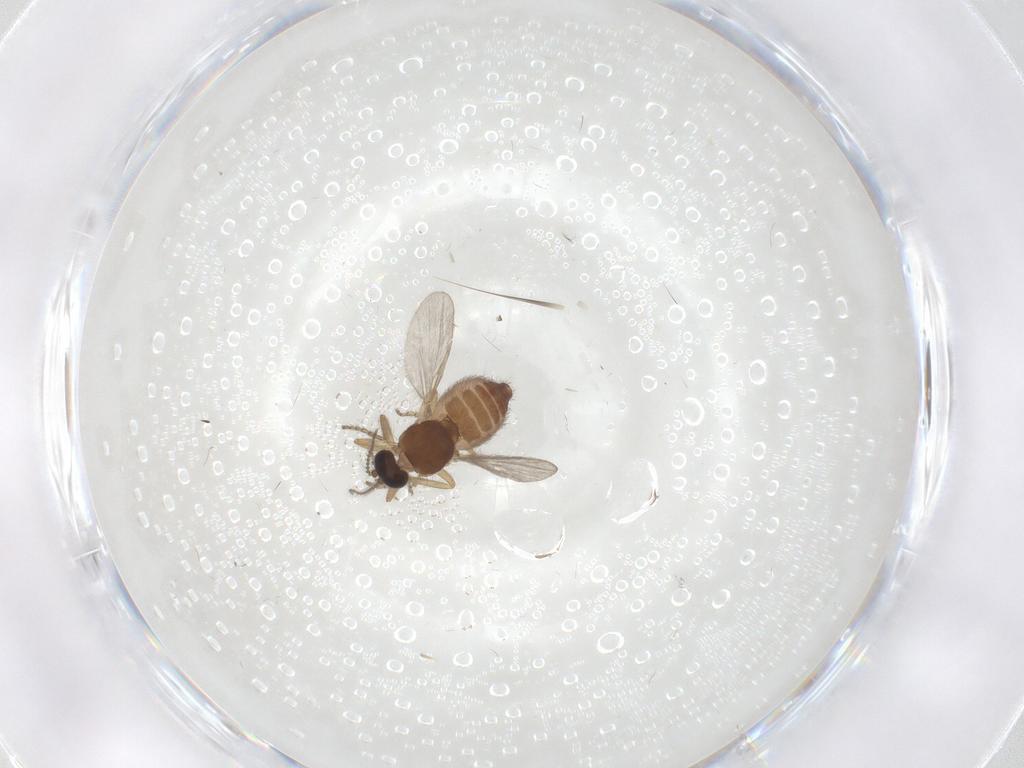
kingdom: Animalia
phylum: Arthropoda
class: Insecta
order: Diptera
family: Ceratopogonidae
